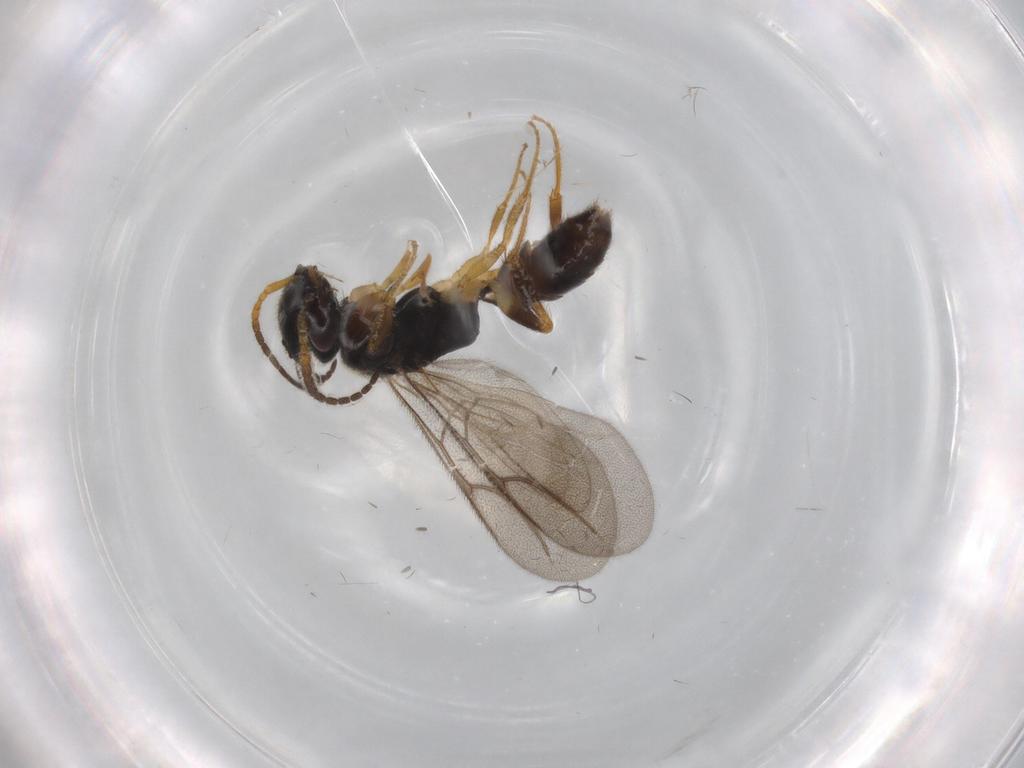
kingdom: Animalia
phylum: Arthropoda
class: Insecta
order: Hymenoptera
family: Bethylidae
